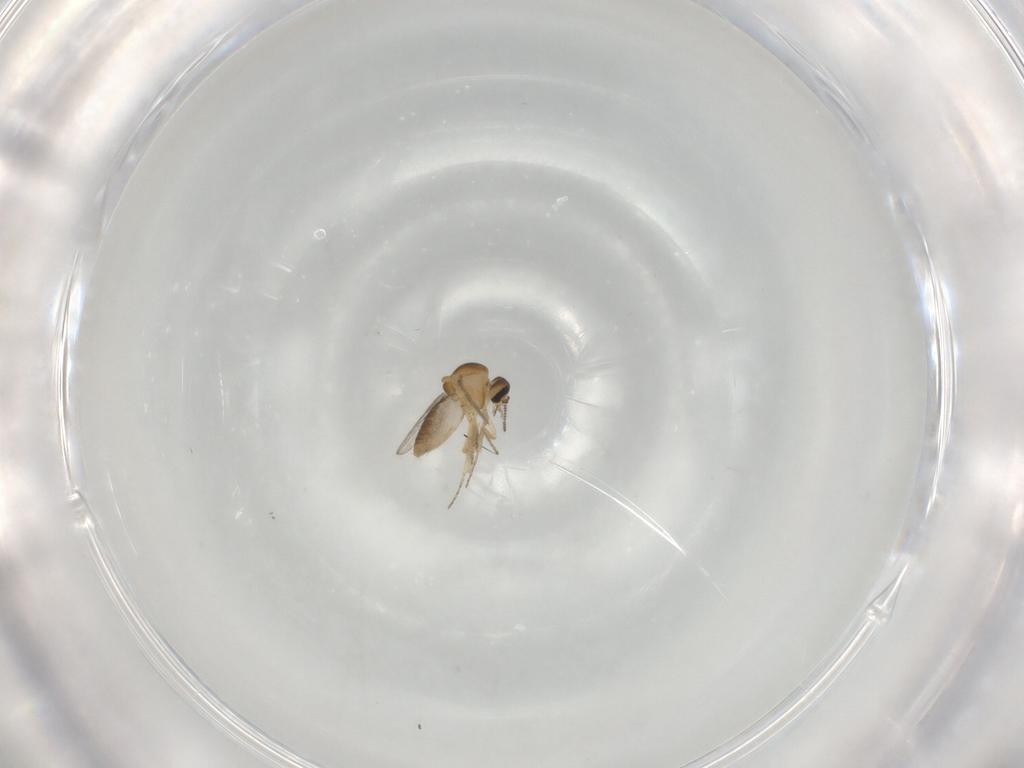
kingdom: Animalia
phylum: Arthropoda
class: Insecta
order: Diptera
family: Ceratopogonidae
